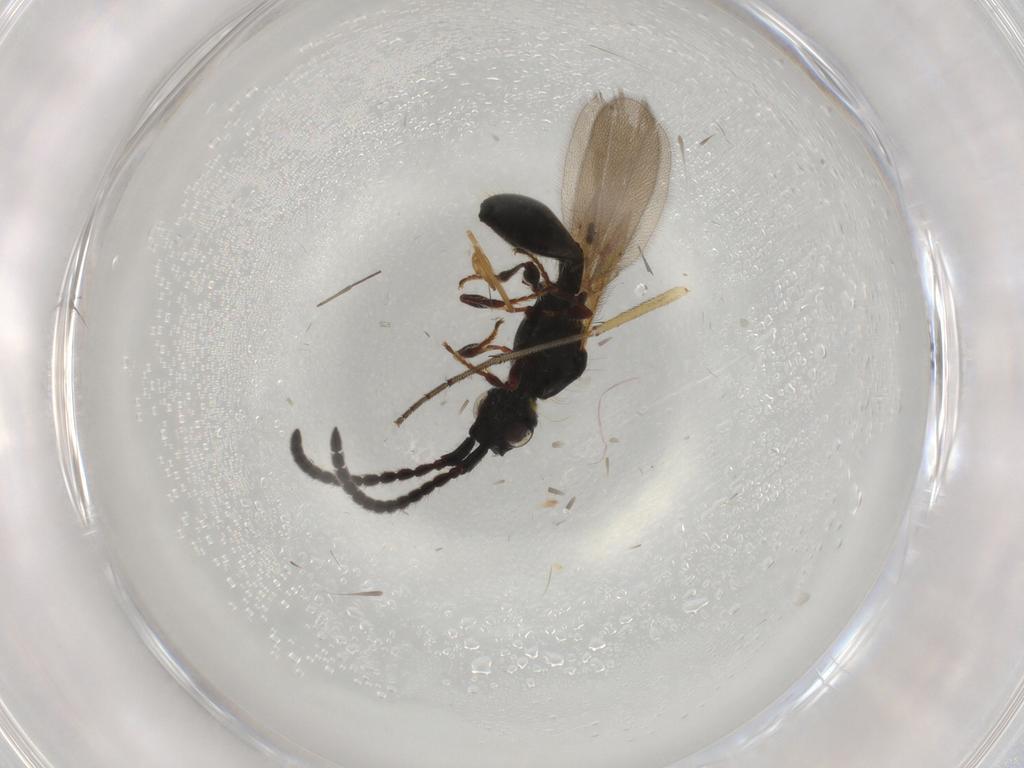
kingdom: Animalia
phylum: Arthropoda
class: Insecta
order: Hymenoptera
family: Diapriidae
